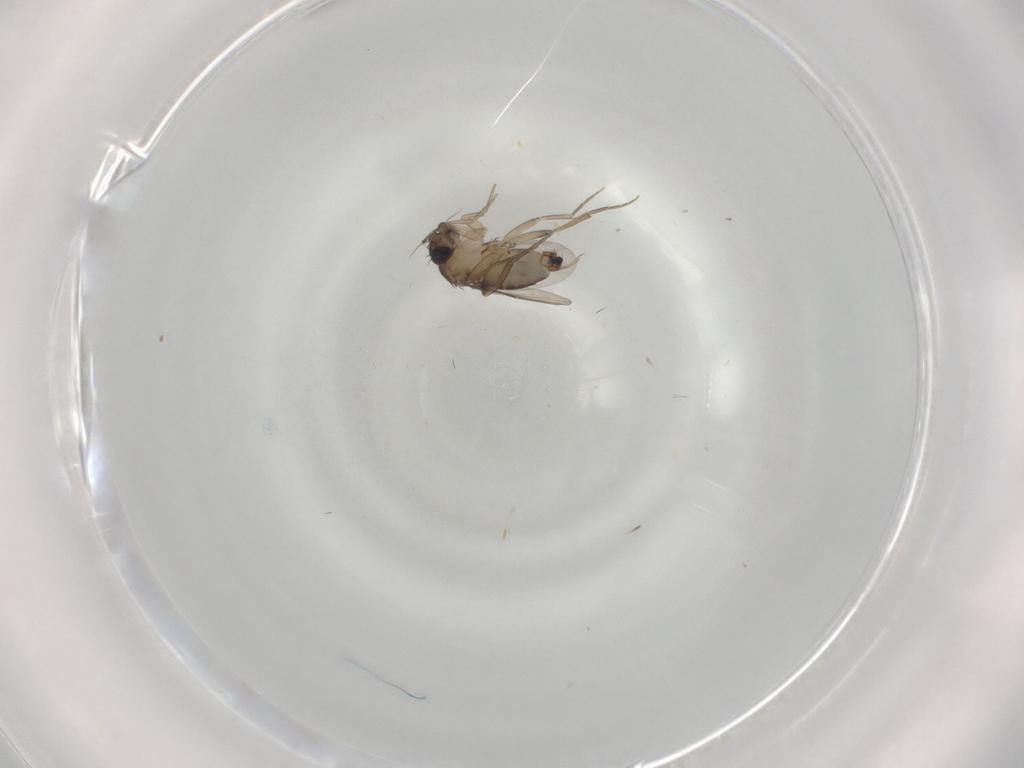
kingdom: Animalia
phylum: Arthropoda
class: Insecta
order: Diptera
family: Phoridae
